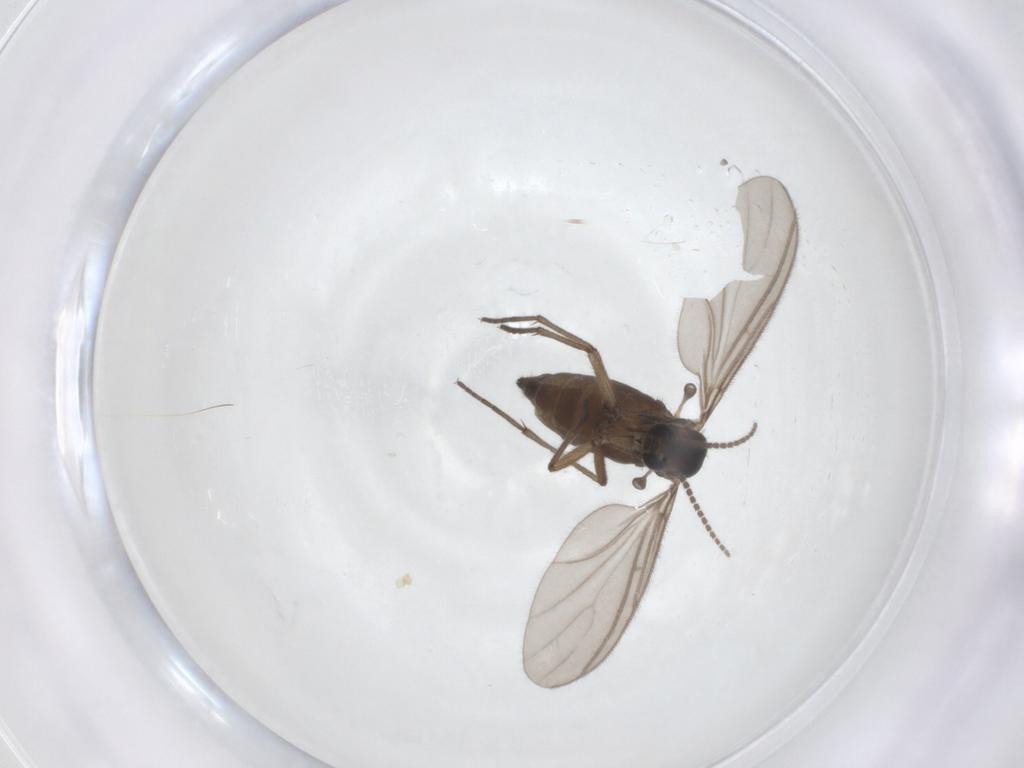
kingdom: Animalia
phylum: Arthropoda
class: Insecta
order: Diptera
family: Sciaridae
